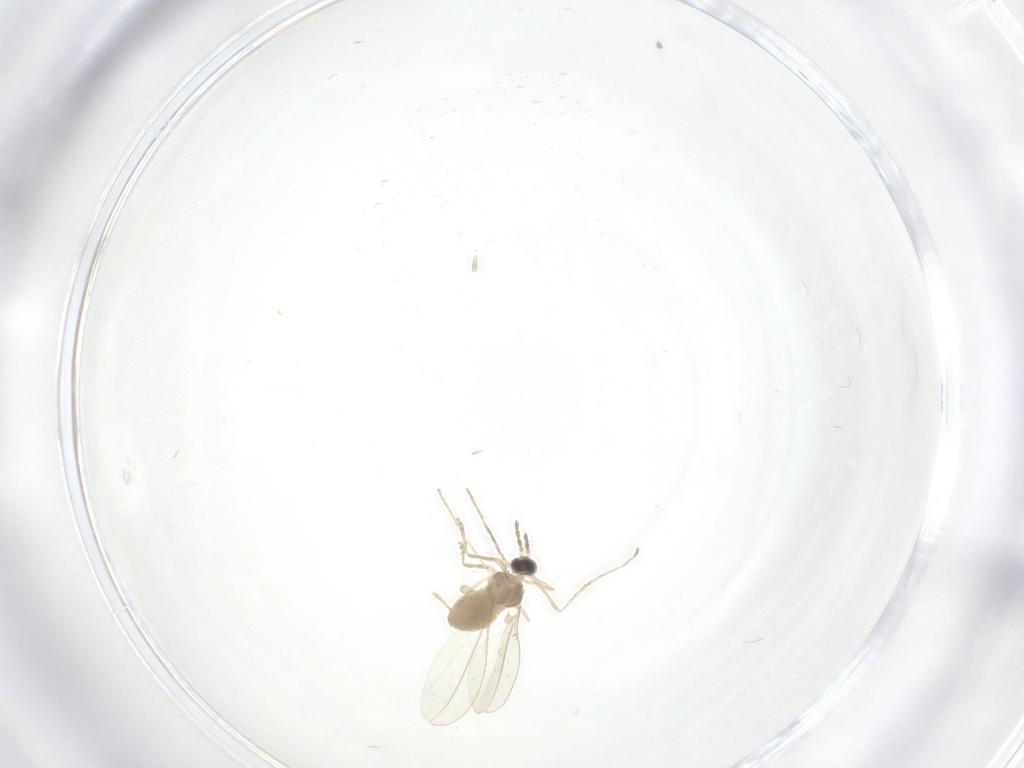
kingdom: Animalia
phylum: Arthropoda
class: Insecta
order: Diptera
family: Cecidomyiidae
